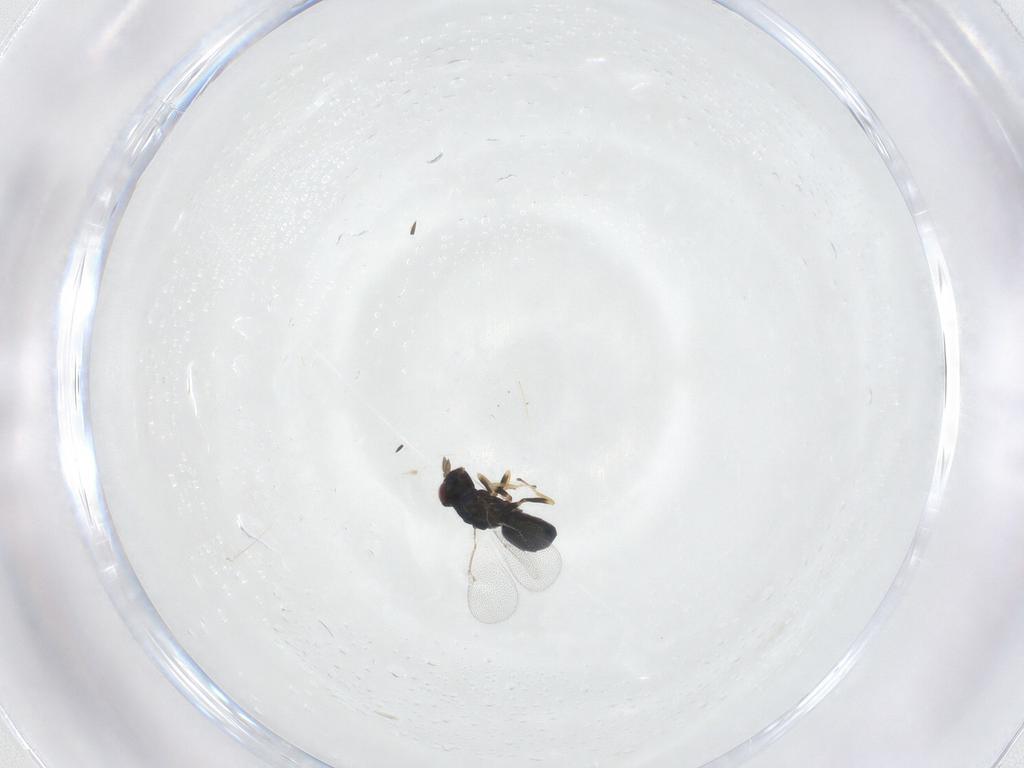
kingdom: Animalia
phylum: Arthropoda
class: Insecta
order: Hymenoptera
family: Eulophidae
